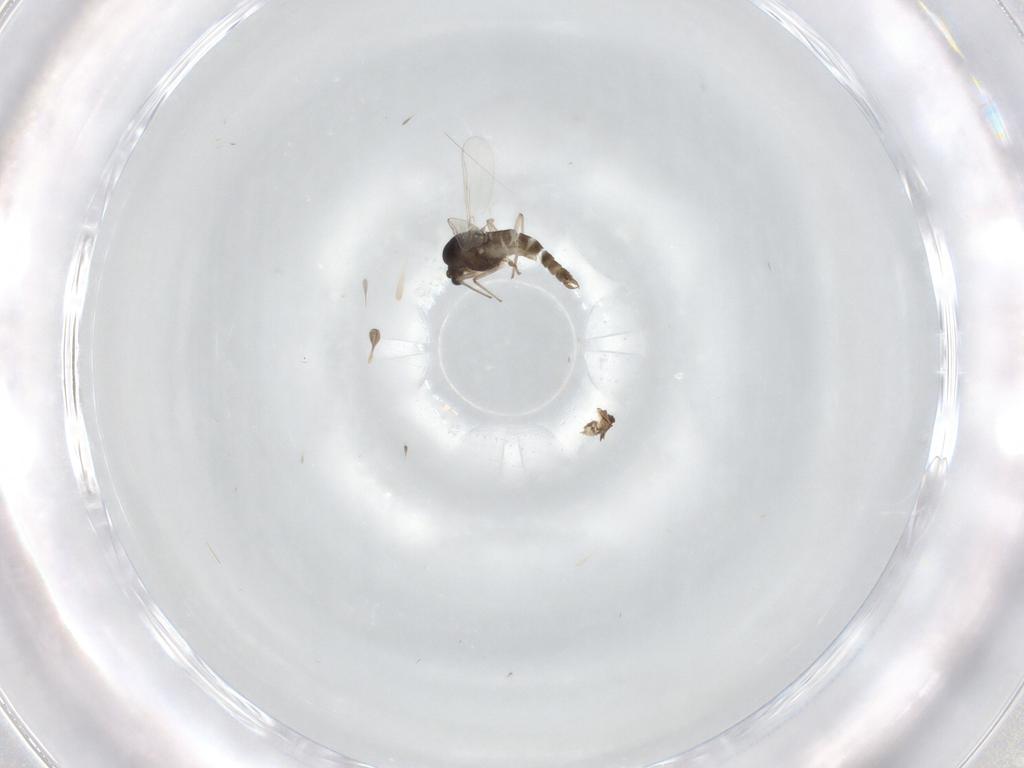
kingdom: Animalia
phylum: Arthropoda
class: Insecta
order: Diptera
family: Chironomidae
